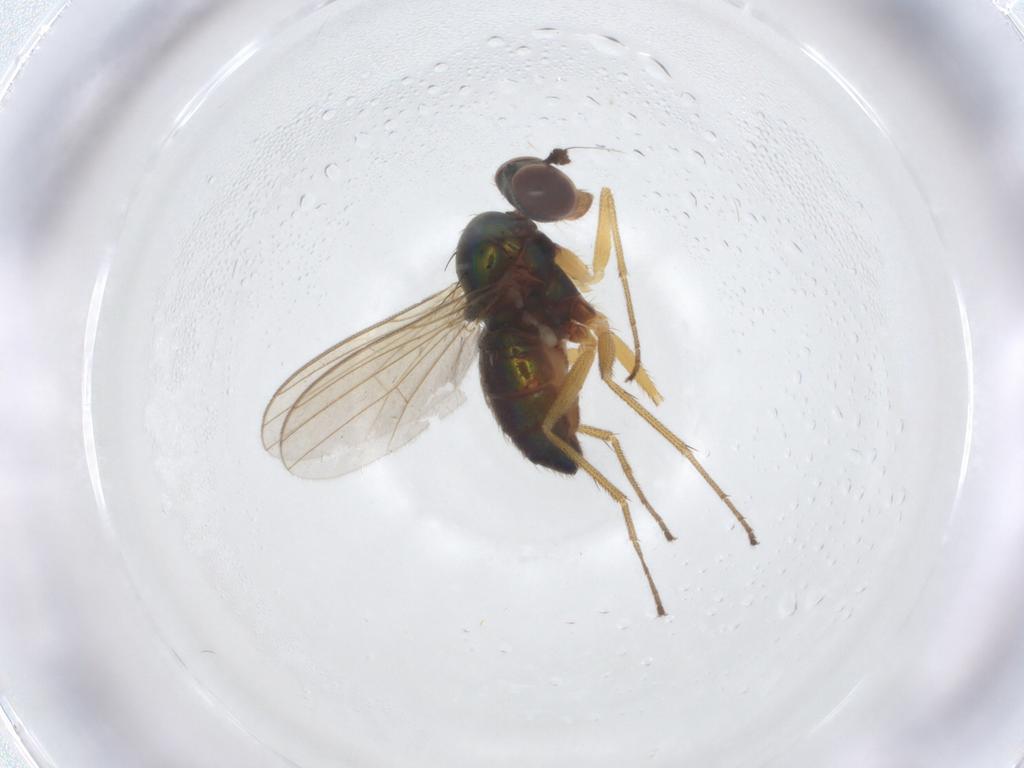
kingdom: Animalia
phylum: Arthropoda
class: Insecta
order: Diptera
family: Dolichopodidae
